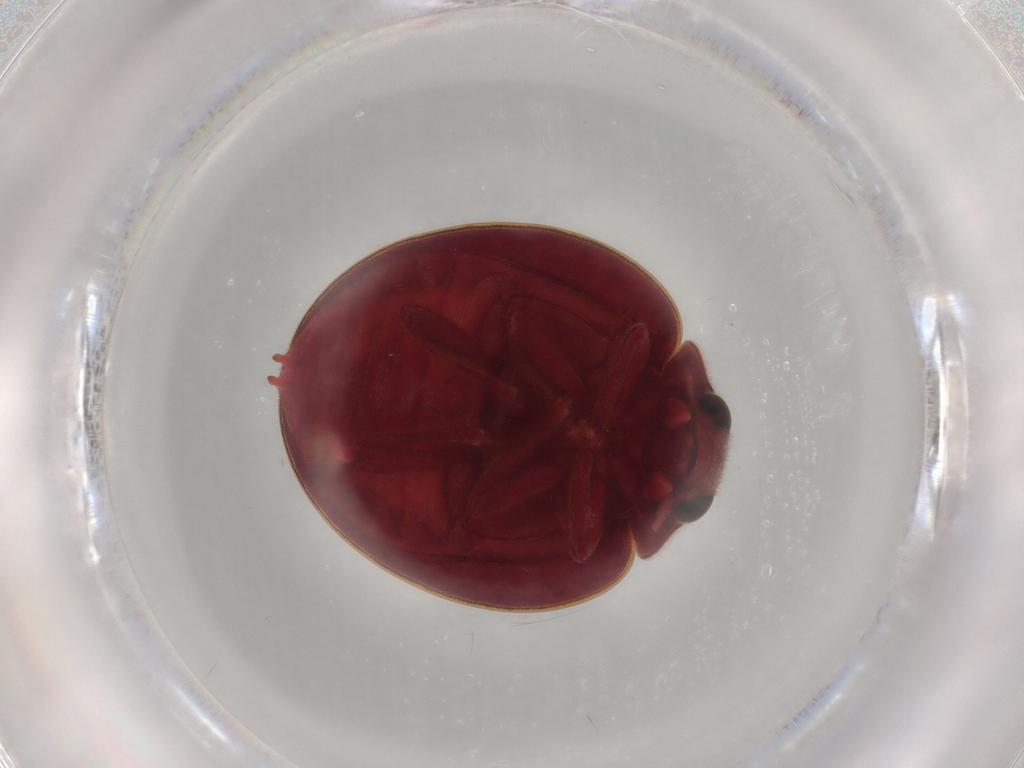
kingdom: Animalia
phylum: Arthropoda
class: Insecta
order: Coleoptera
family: Coccinellidae
